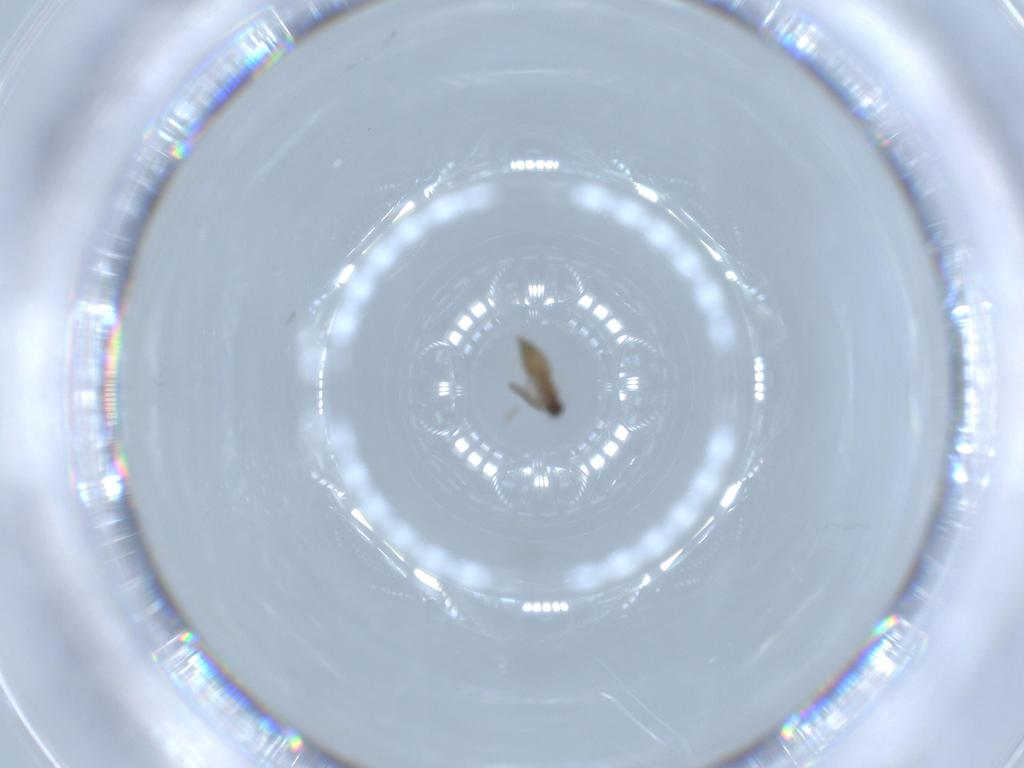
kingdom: Animalia
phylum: Arthropoda
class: Insecta
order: Diptera
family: Cecidomyiidae
